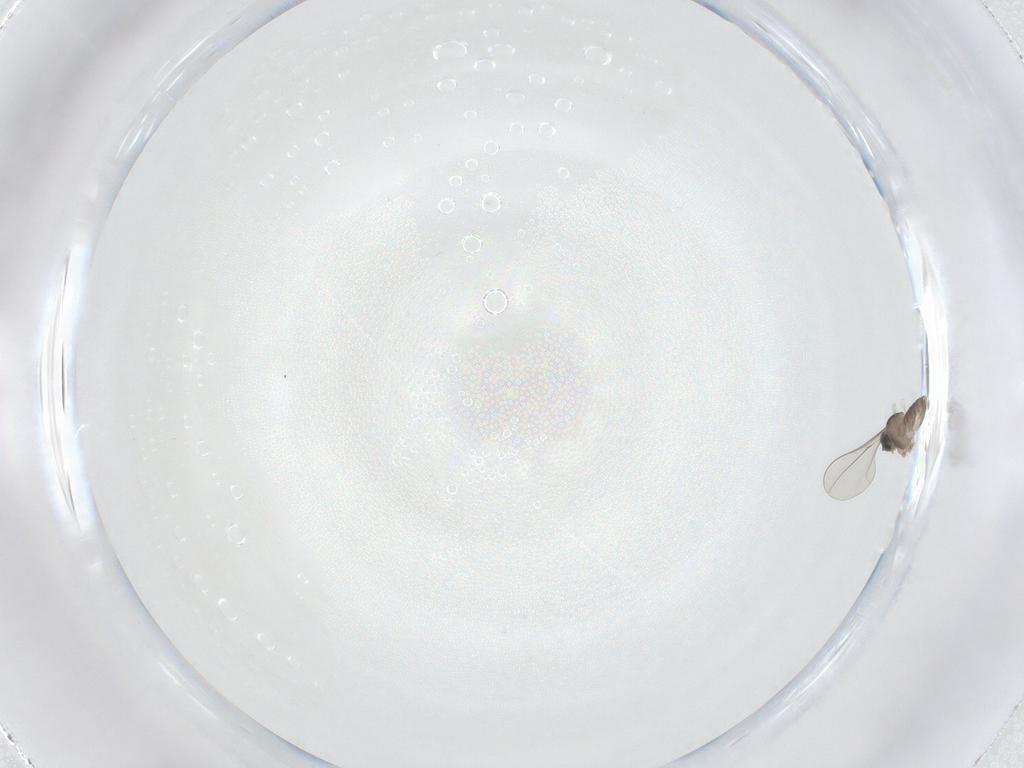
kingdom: Animalia
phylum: Arthropoda
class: Insecta
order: Diptera
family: Cecidomyiidae
